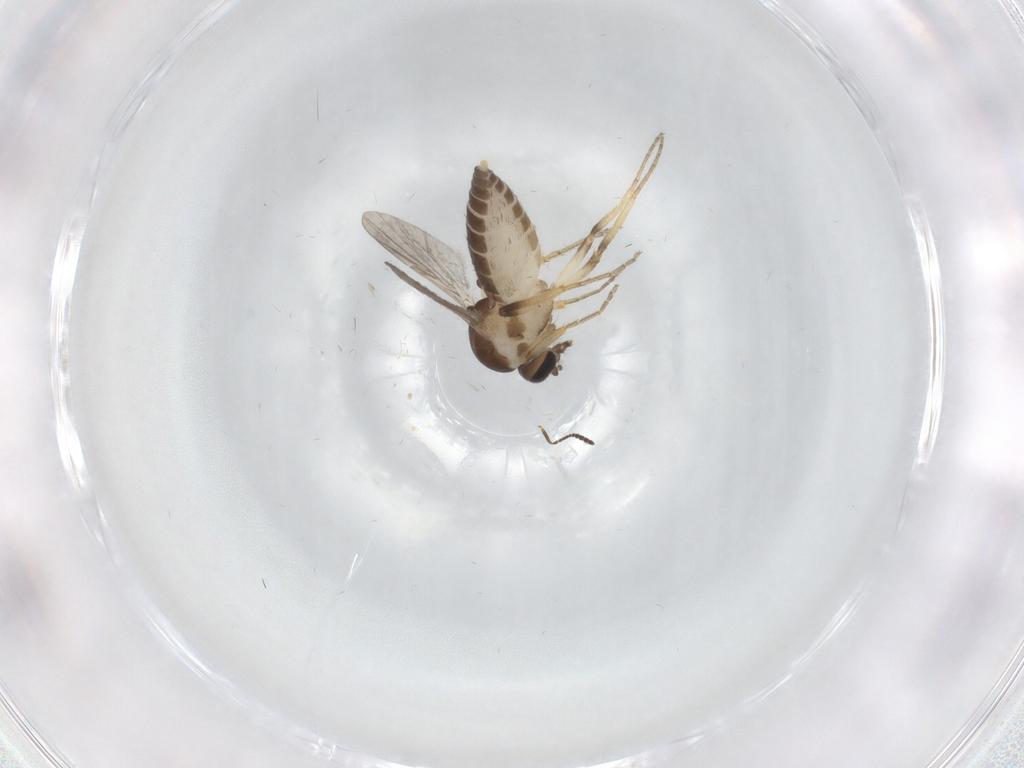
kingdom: Animalia
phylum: Arthropoda
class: Insecta
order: Diptera
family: Ceratopogonidae
